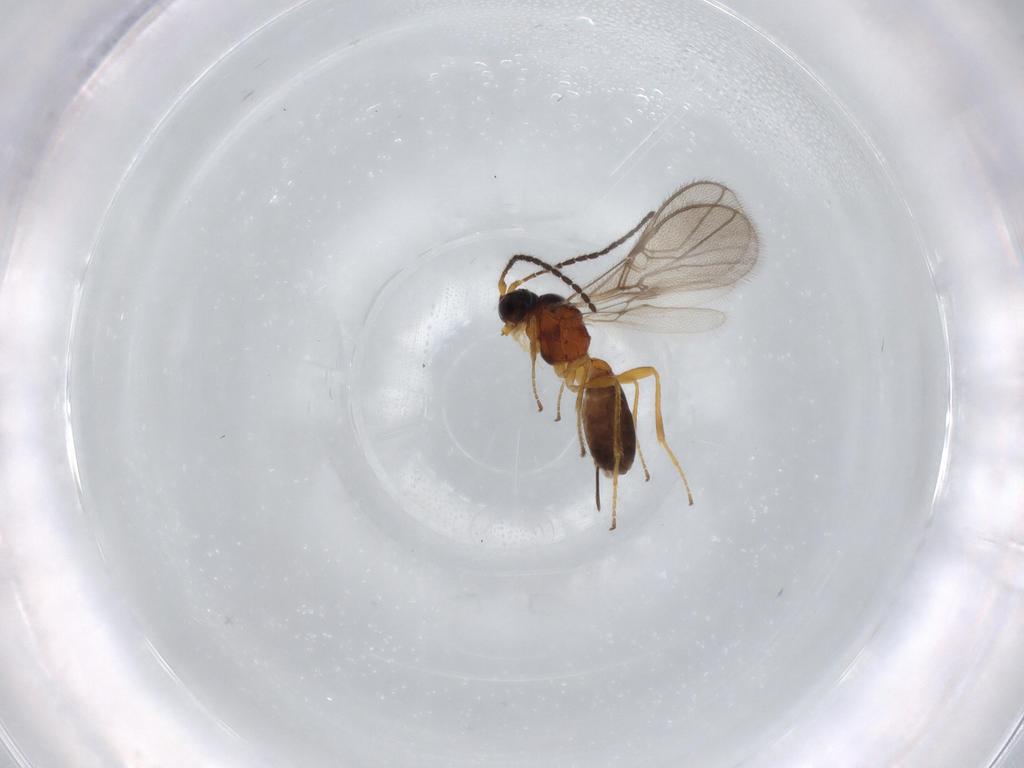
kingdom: Animalia
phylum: Arthropoda
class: Insecta
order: Hymenoptera
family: Braconidae
